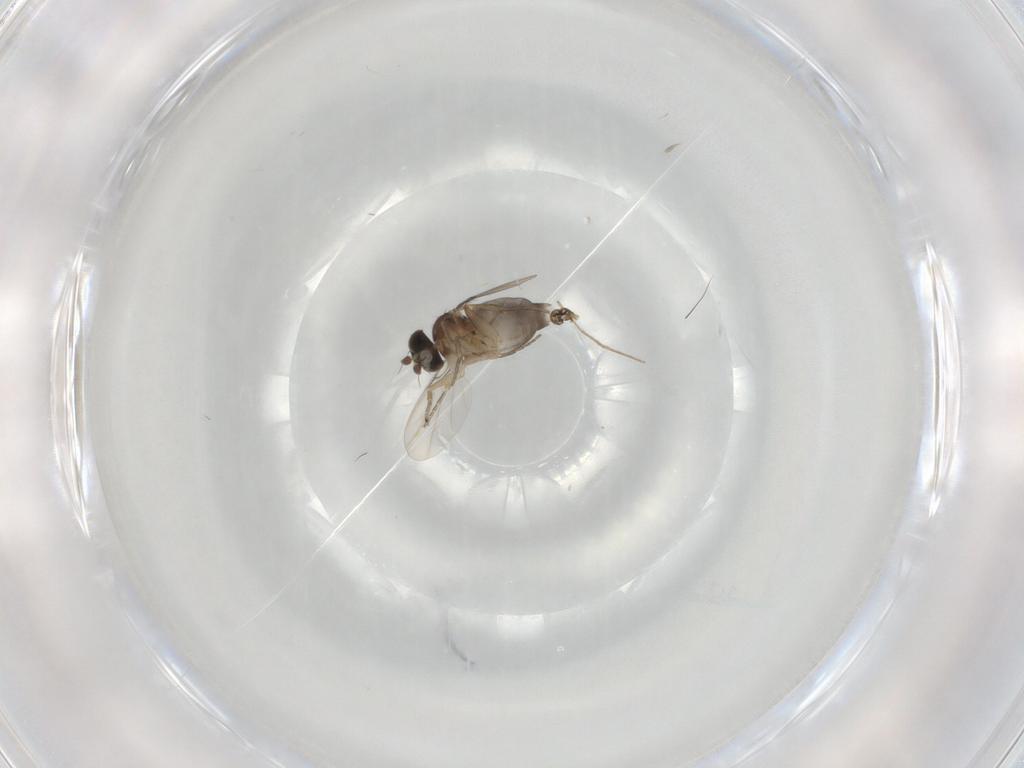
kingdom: Animalia
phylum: Arthropoda
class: Insecta
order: Diptera
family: Phoridae
